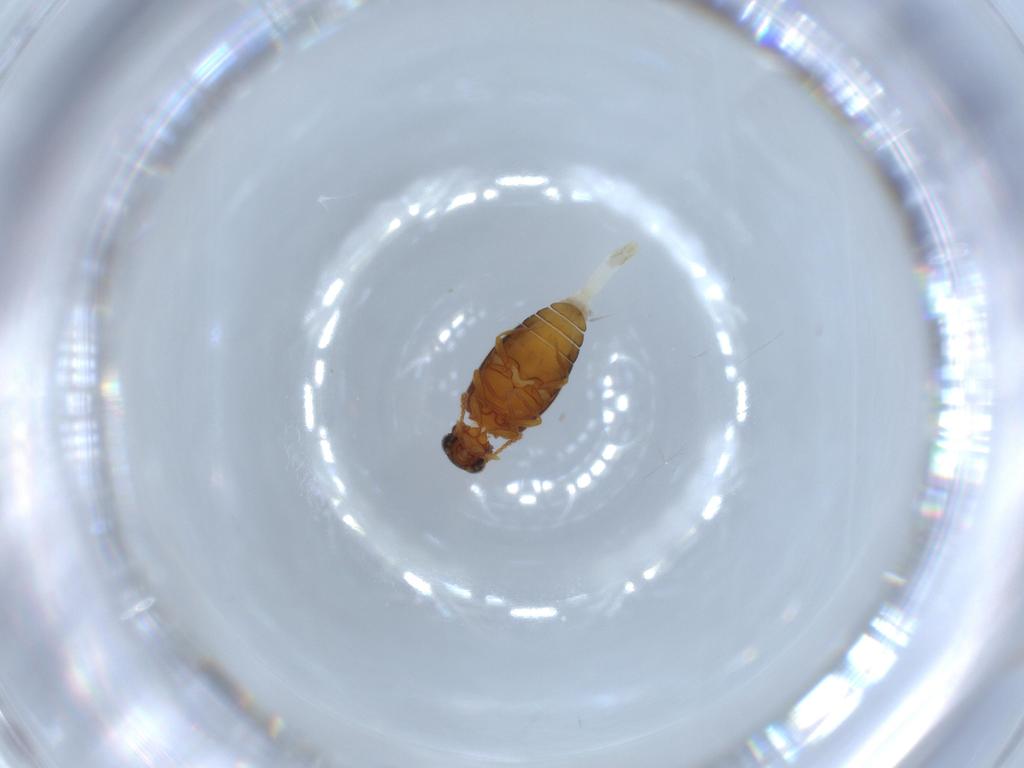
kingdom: Animalia
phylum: Arthropoda
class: Insecta
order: Coleoptera
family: Aderidae
